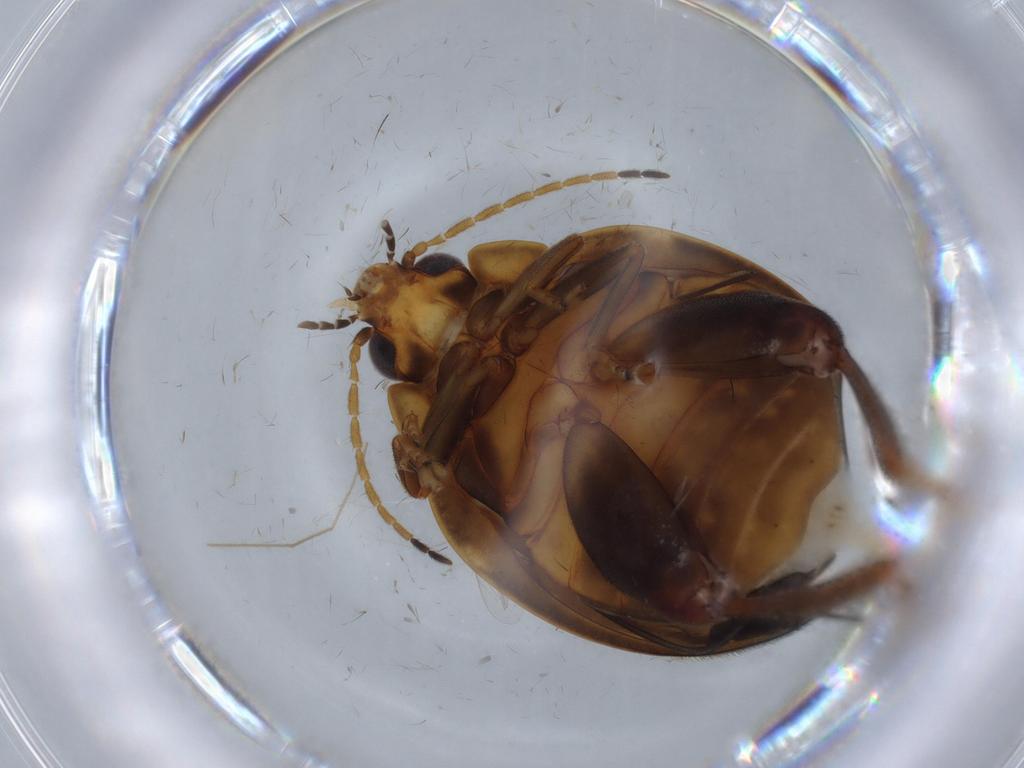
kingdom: Animalia
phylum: Arthropoda
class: Insecta
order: Coleoptera
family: Scirtidae
